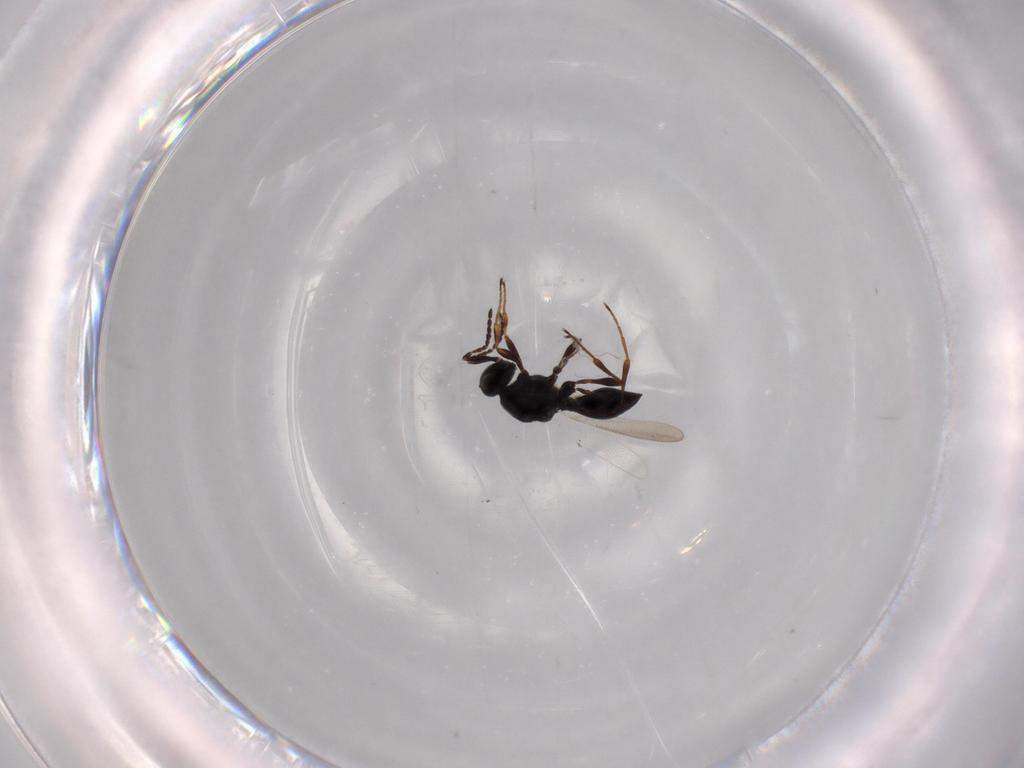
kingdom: Animalia
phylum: Arthropoda
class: Insecta
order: Hymenoptera
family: Platygastridae
